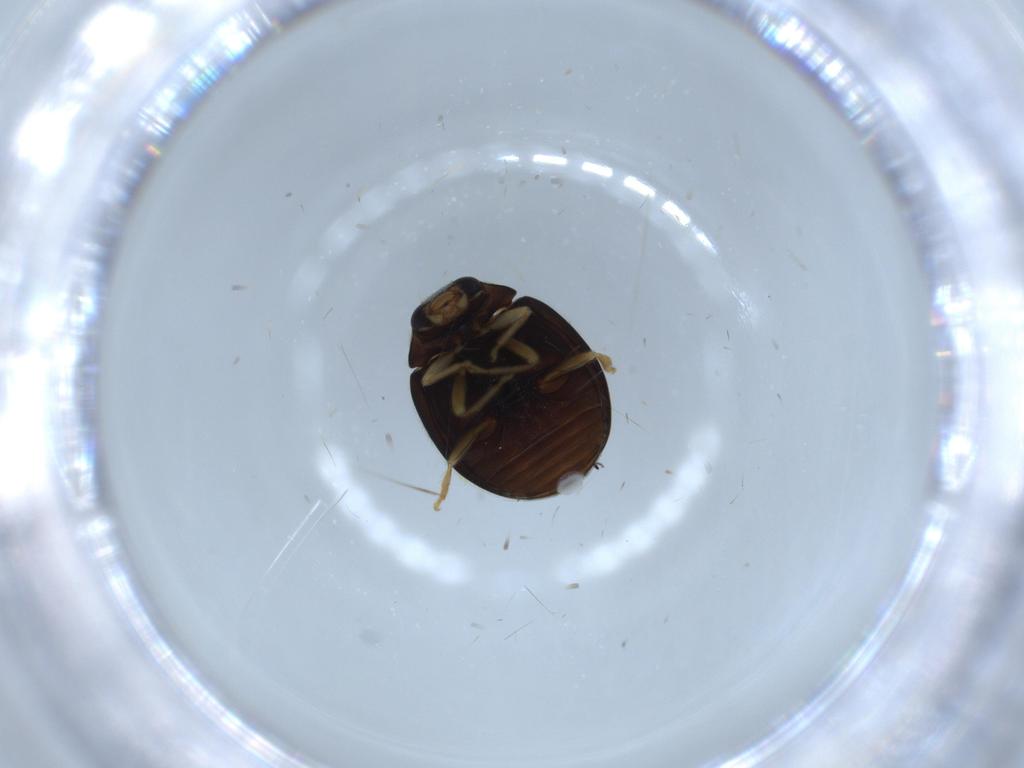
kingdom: Animalia
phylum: Arthropoda
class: Insecta
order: Coleoptera
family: Coccinellidae
